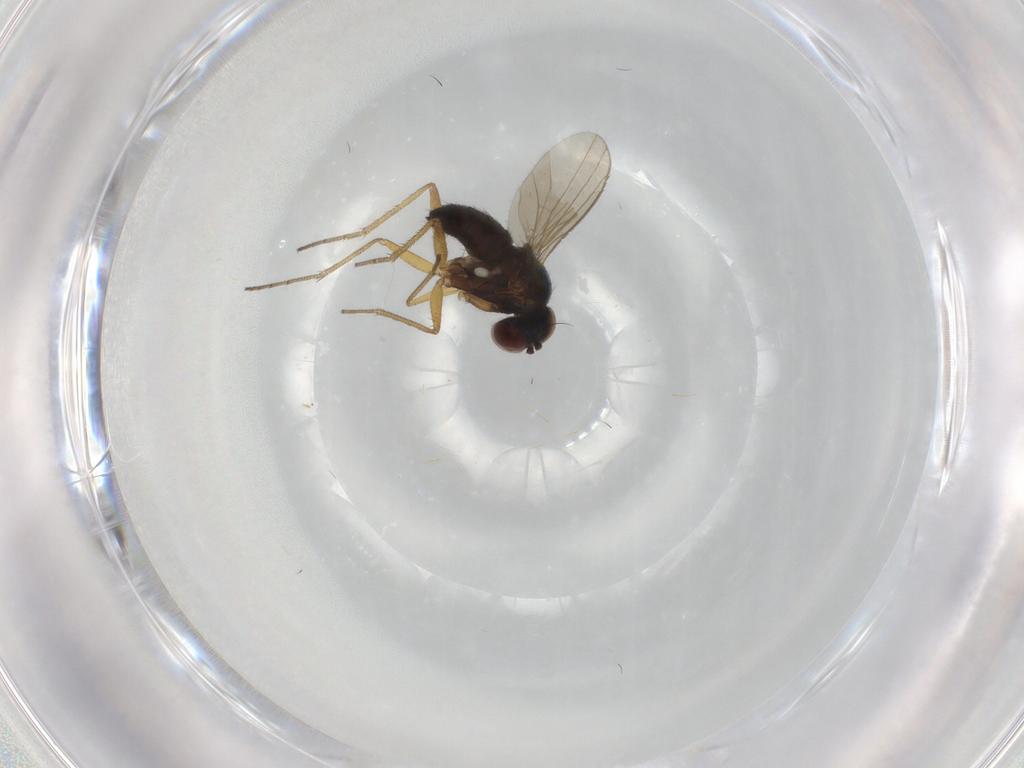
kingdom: Animalia
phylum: Arthropoda
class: Insecta
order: Diptera
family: Dolichopodidae
